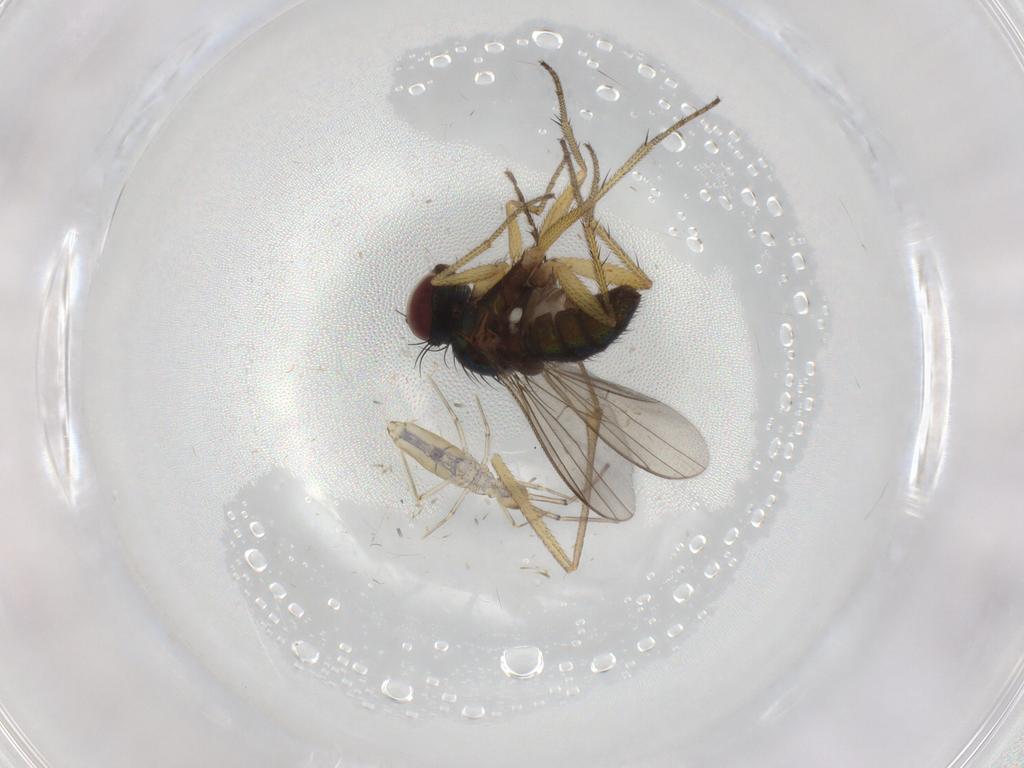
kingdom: Animalia
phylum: Arthropoda
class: Insecta
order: Diptera
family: Keroplatidae
